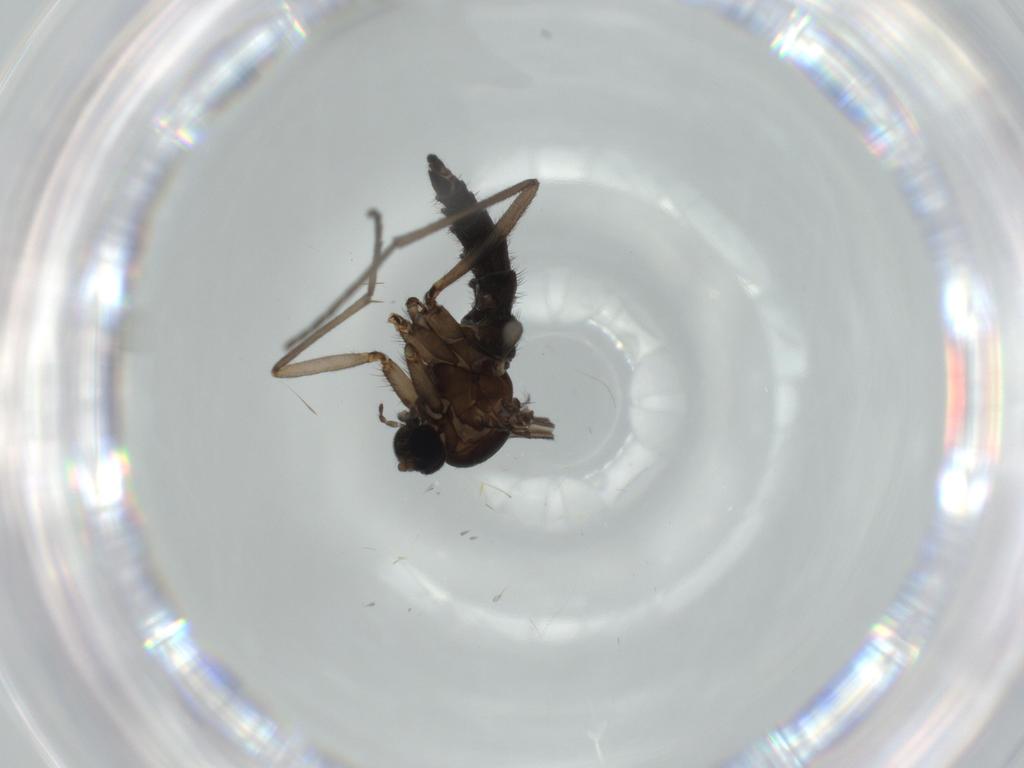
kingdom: Animalia
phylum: Arthropoda
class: Insecta
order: Diptera
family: Sciaridae
